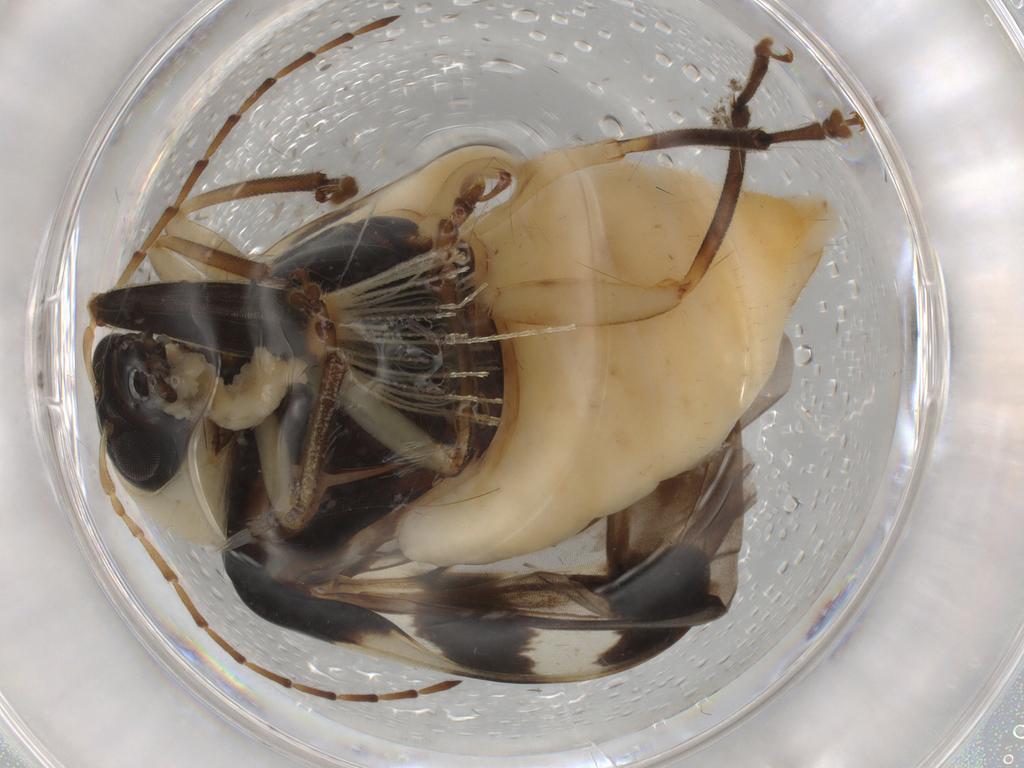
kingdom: Animalia
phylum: Arthropoda
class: Insecta
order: Coleoptera
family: Chrysomelidae
